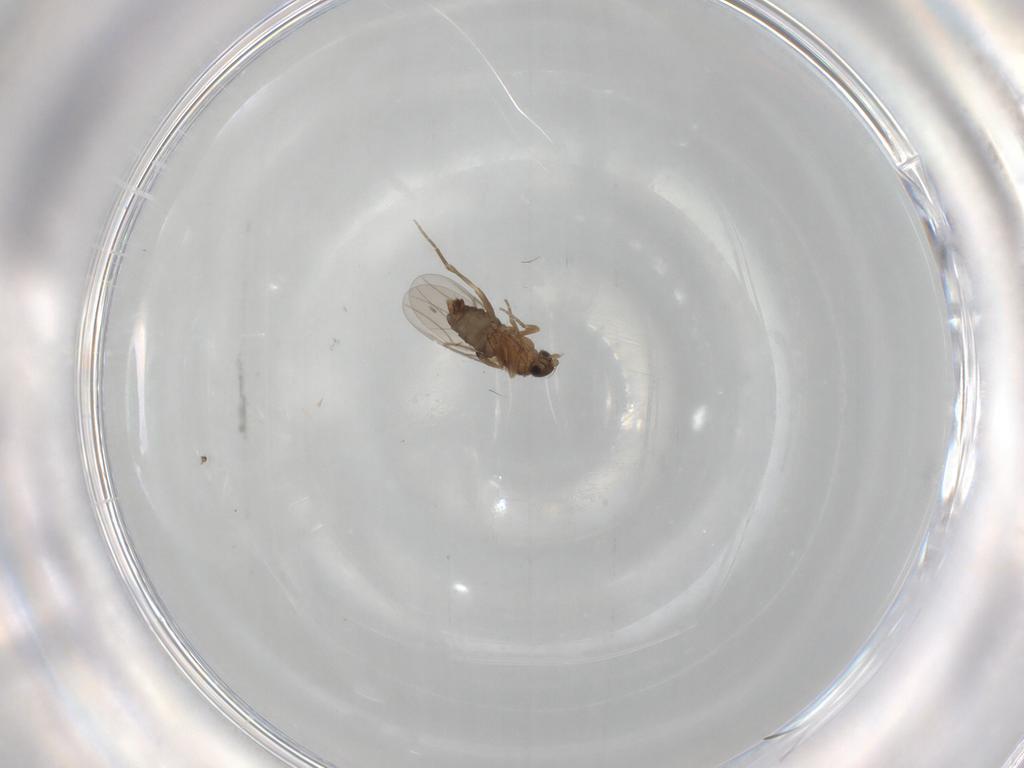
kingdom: Animalia
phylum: Arthropoda
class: Insecta
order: Diptera
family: Phoridae
